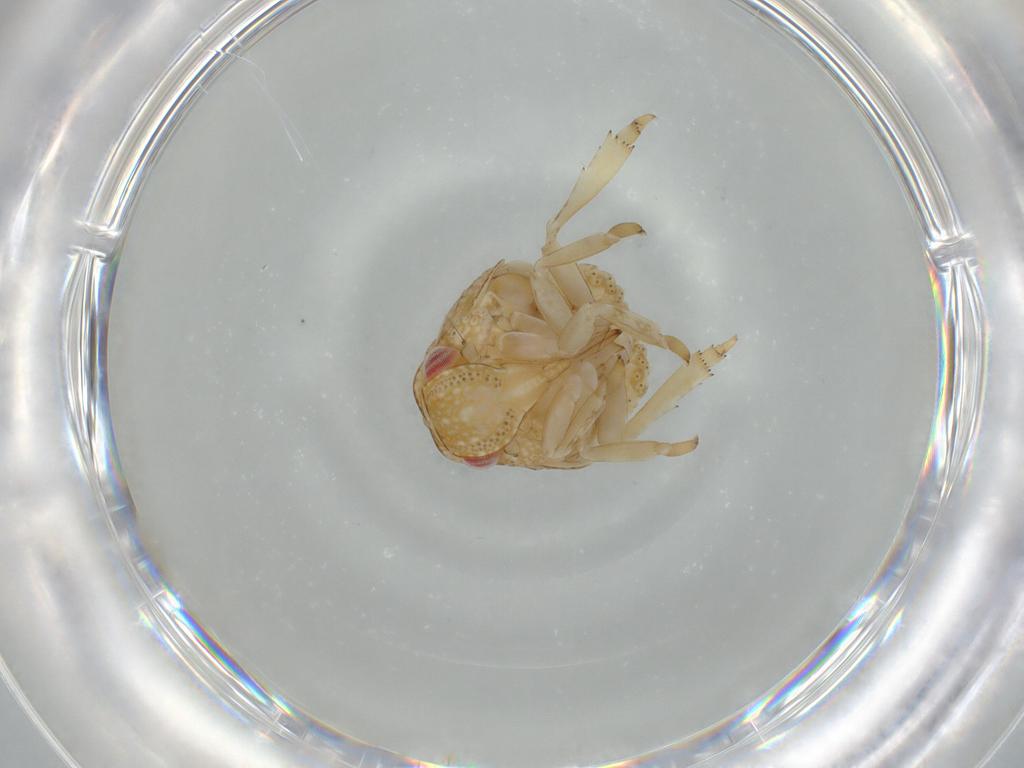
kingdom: Animalia
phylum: Arthropoda
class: Insecta
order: Hemiptera
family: Acanaloniidae
